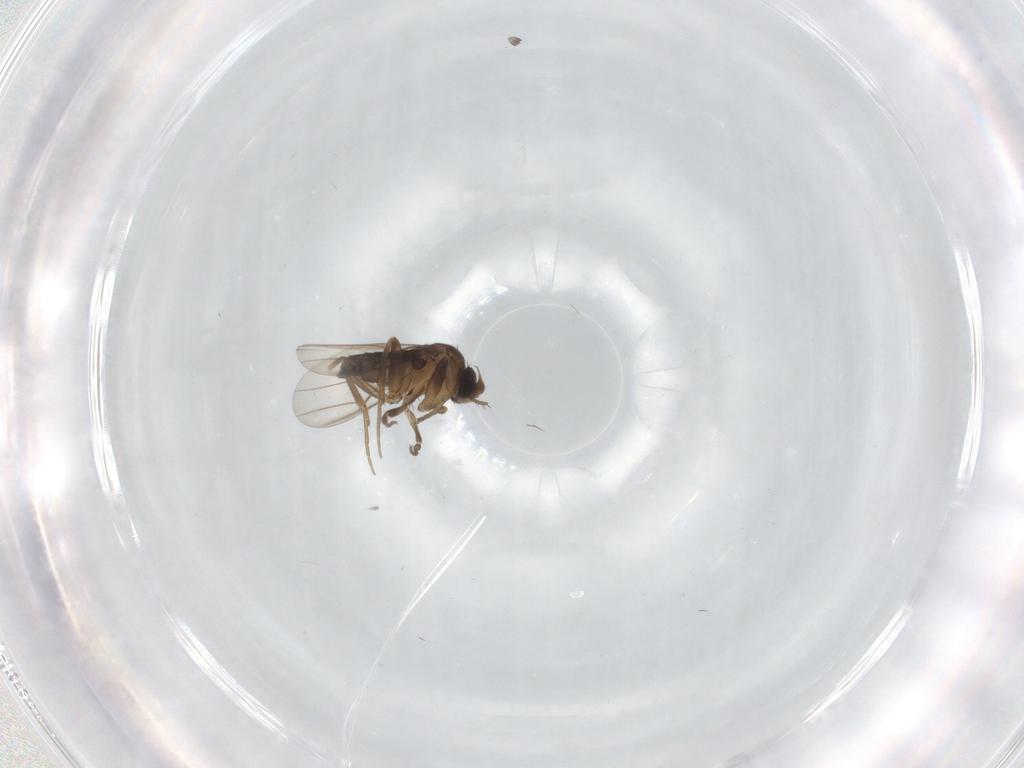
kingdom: Animalia
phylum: Arthropoda
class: Insecta
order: Diptera
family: Phoridae
